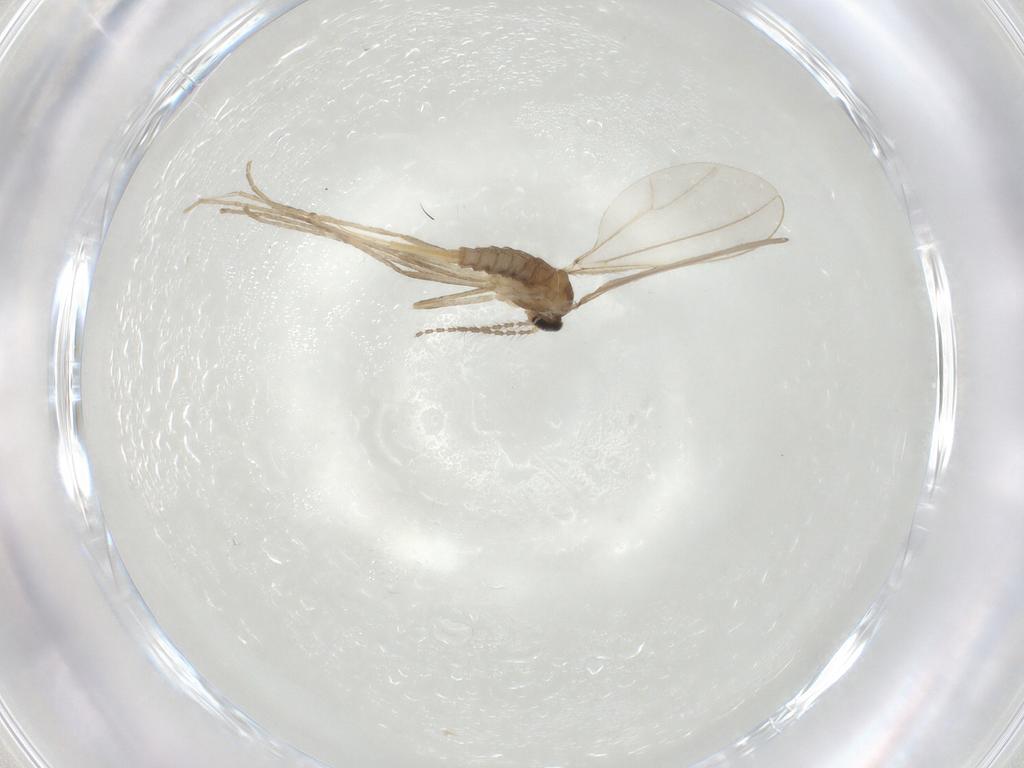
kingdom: Animalia
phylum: Arthropoda
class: Insecta
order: Diptera
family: Cecidomyiidae
